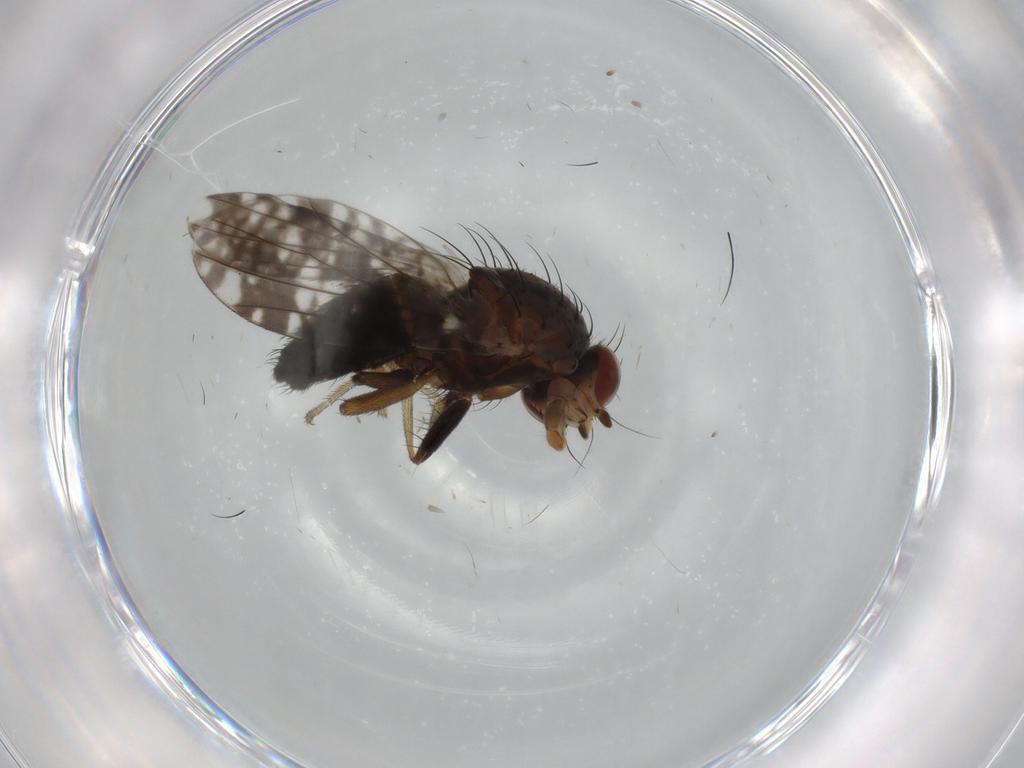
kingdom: Animalia
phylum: Arthropoda
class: Insecta
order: Diptera
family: Tephritidae
